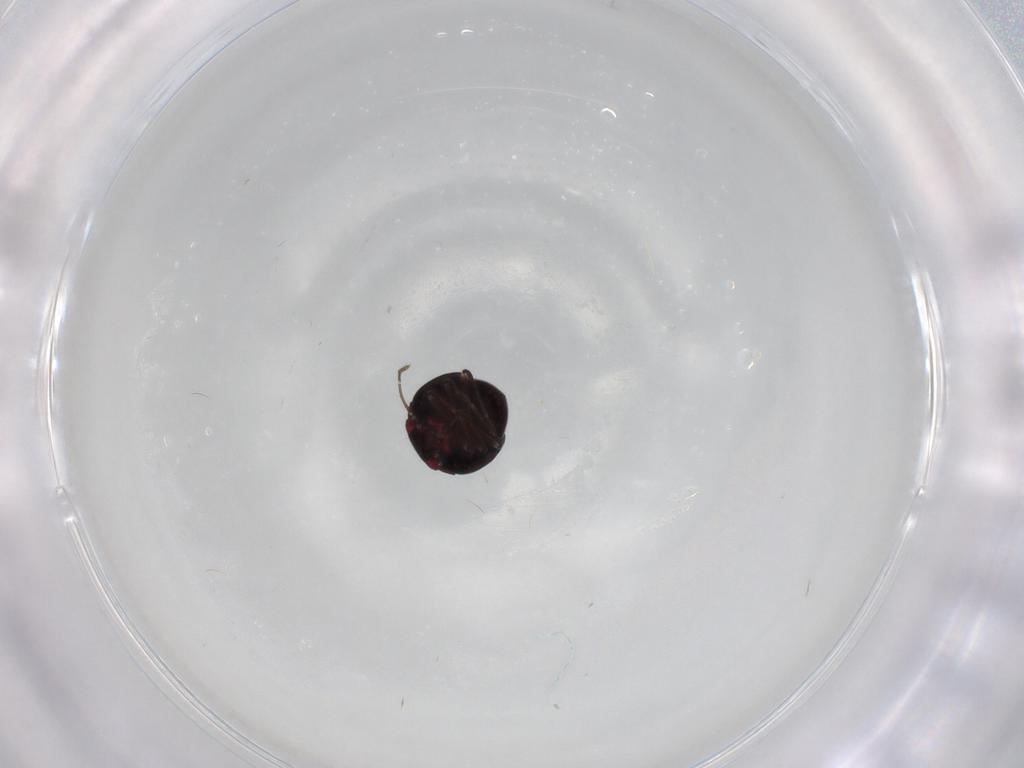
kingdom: Animalia
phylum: Arthropoda
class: Insecta
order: Hemiptera
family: Schizopteridae
